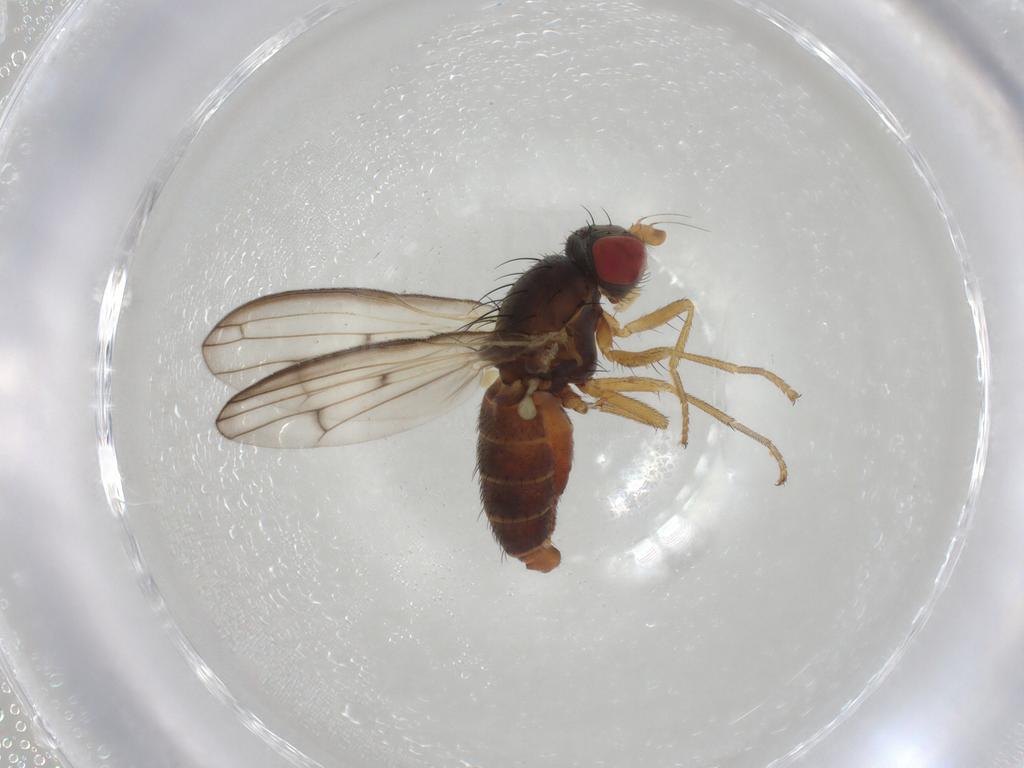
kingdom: Animalia
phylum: Arthropoda
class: Insecta
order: Diptera
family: Chamaemyiidae
